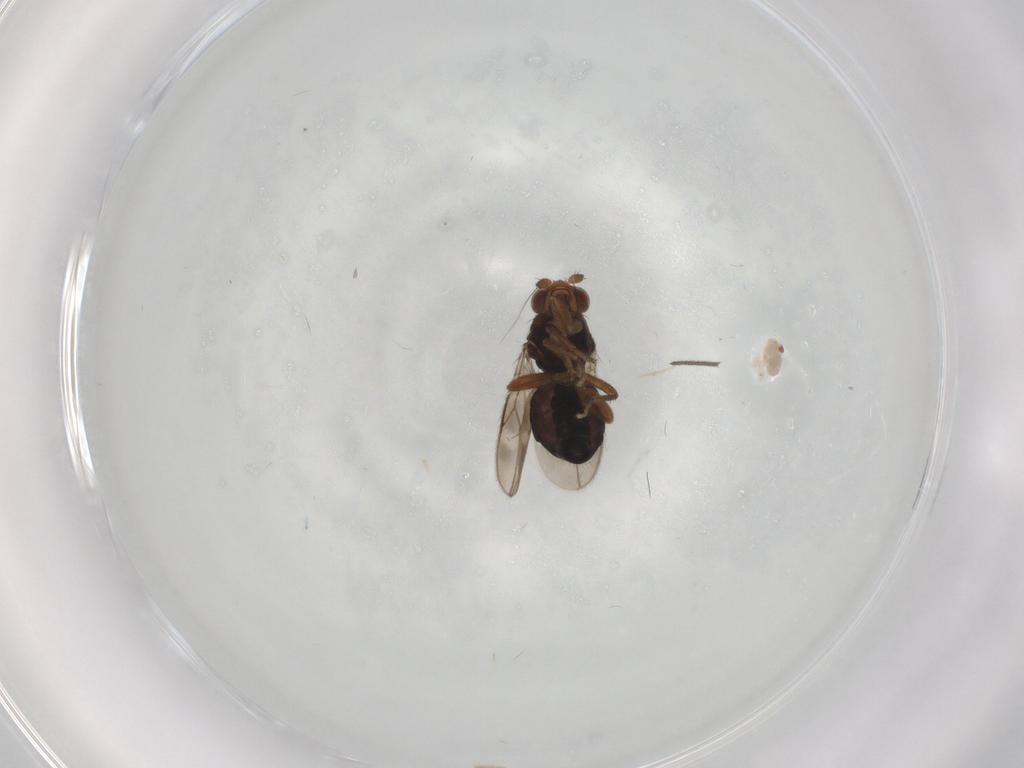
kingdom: Animalia
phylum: Arthropoda
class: Insecta
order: Diptera
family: Sphaeroceridae
